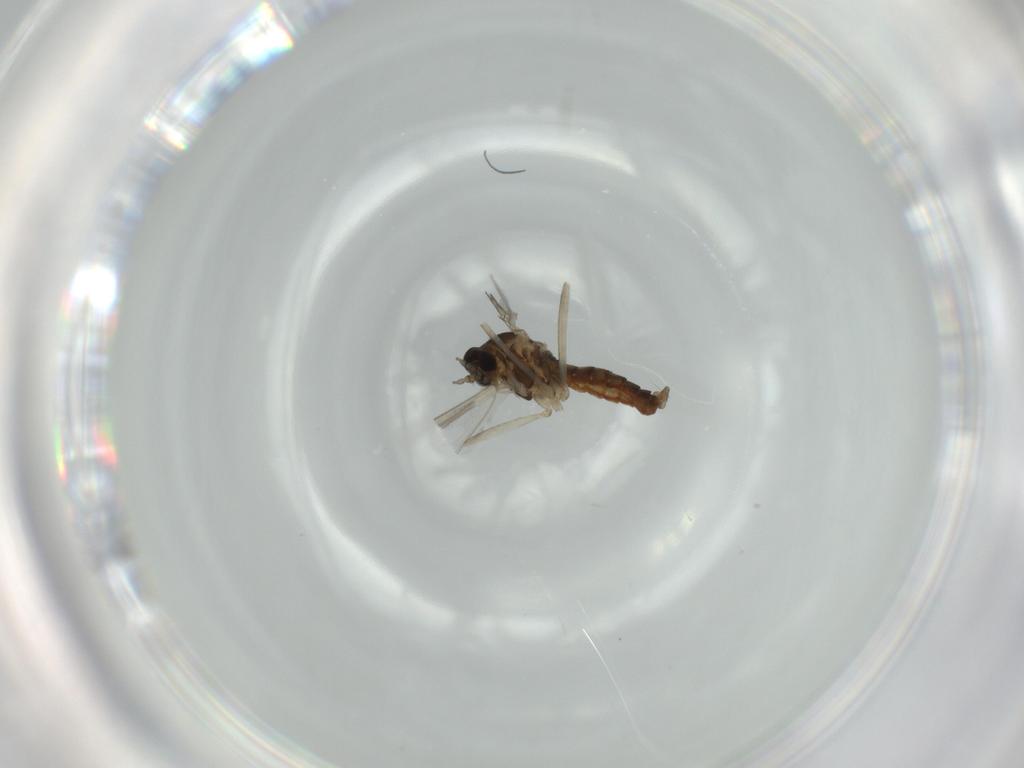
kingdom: Animalia
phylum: Arthropoda
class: Insecta
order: Diptera
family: Cecidomyiidae
